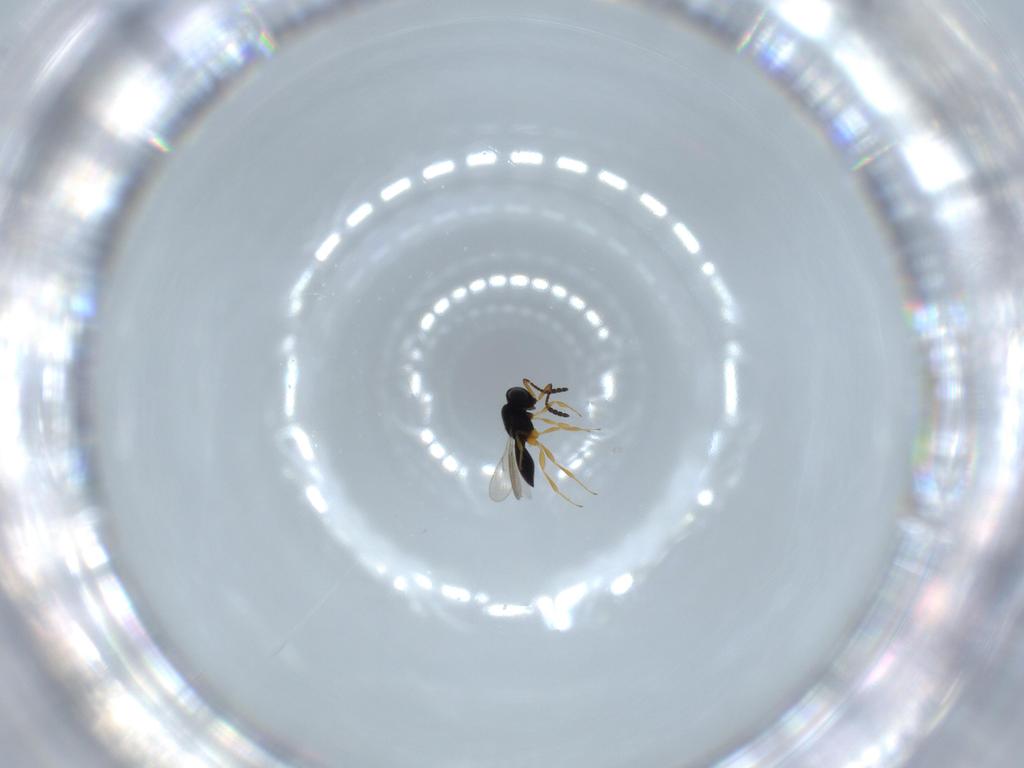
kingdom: Animalia
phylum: Arthropoda
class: Insecta
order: Hymenoptera
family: Scelionidae
